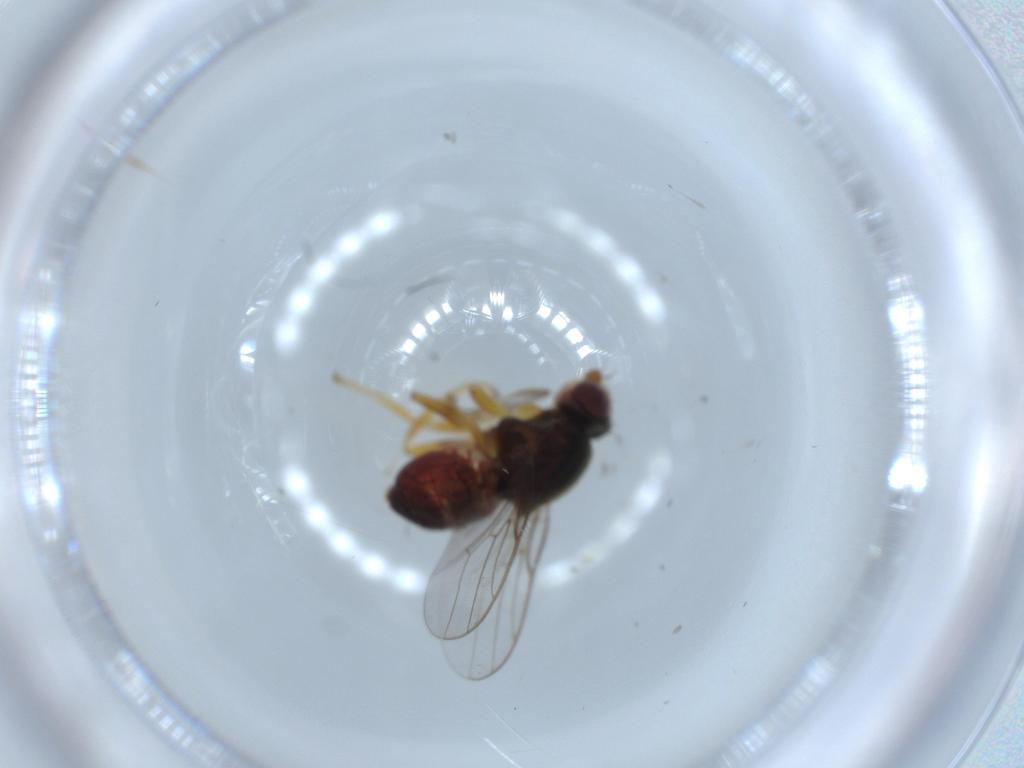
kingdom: Animalia
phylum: Arthropoda
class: Insecta
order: Diptera
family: Chloropidae
